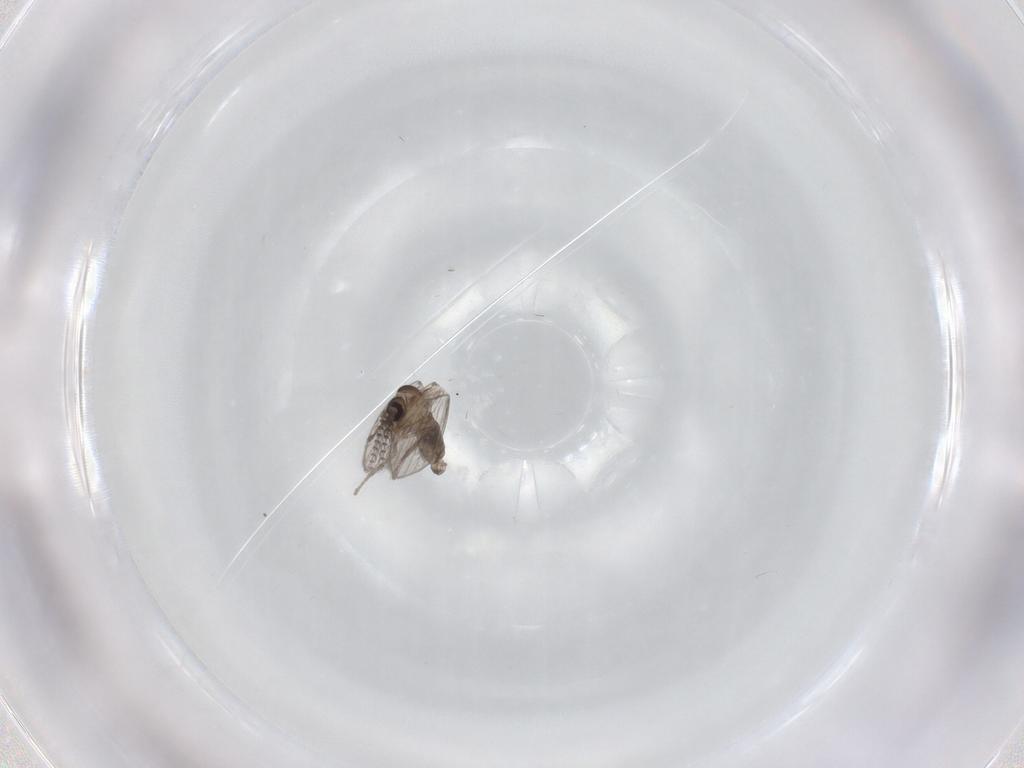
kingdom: Animalia
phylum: Arthropoda
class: Insecta
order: Diptera
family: Psychodidae
